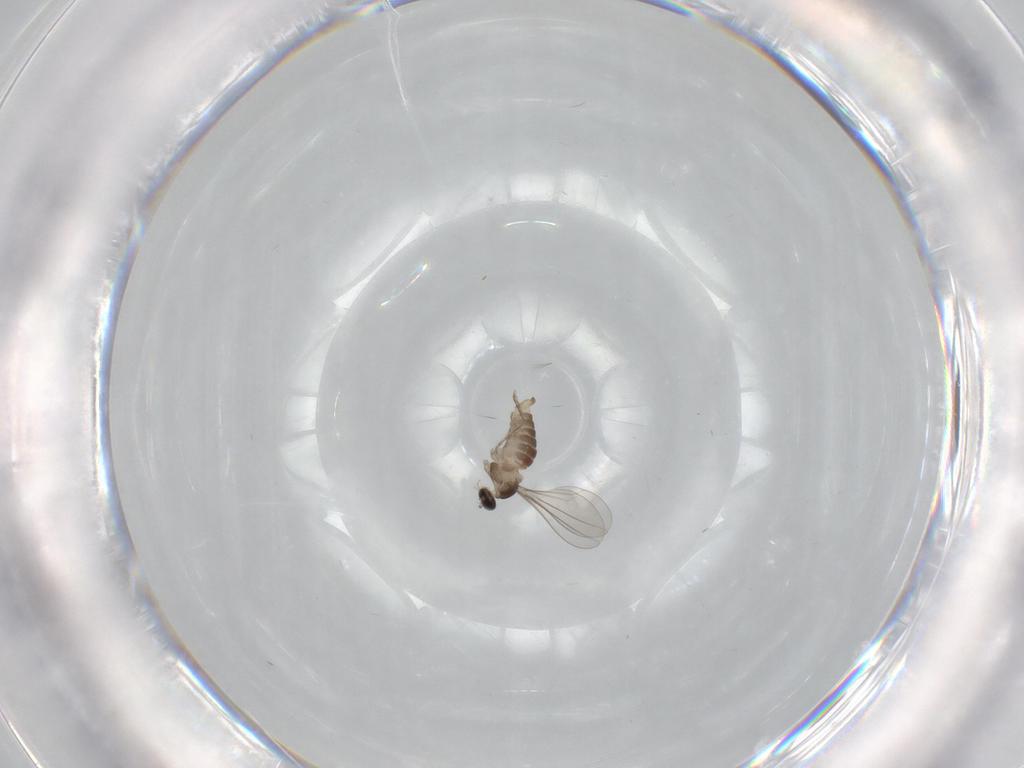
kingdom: Animalia
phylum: Arthropoda
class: Insecta
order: Diptera
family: Cecidomyiidae
